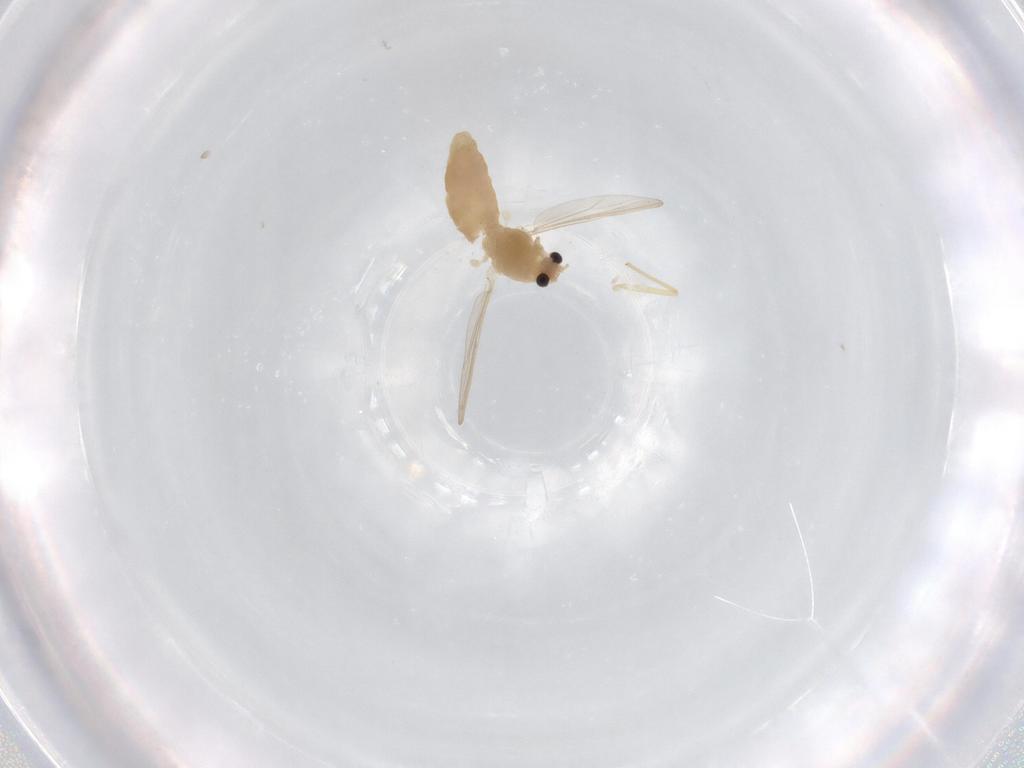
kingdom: Animalia
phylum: Arthropoda
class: Insecta
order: Diptera
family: Chironomidae
